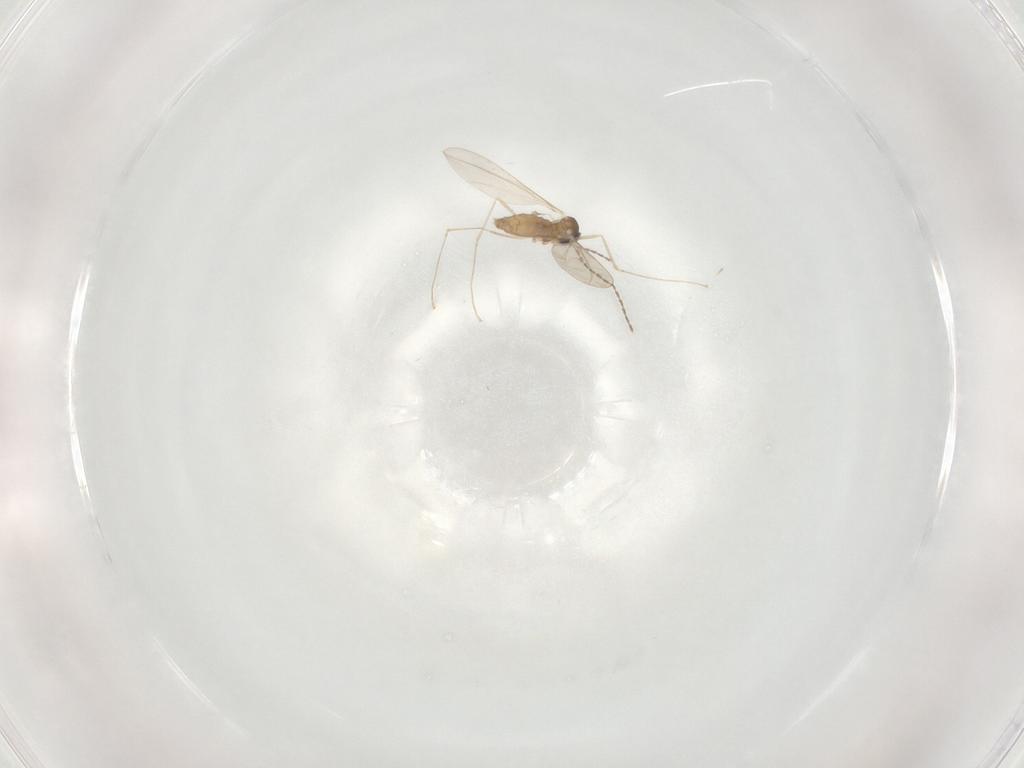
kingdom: Animalia
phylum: Arthropoda
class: Insecta
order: Diptera
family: Cecidomyiidae
